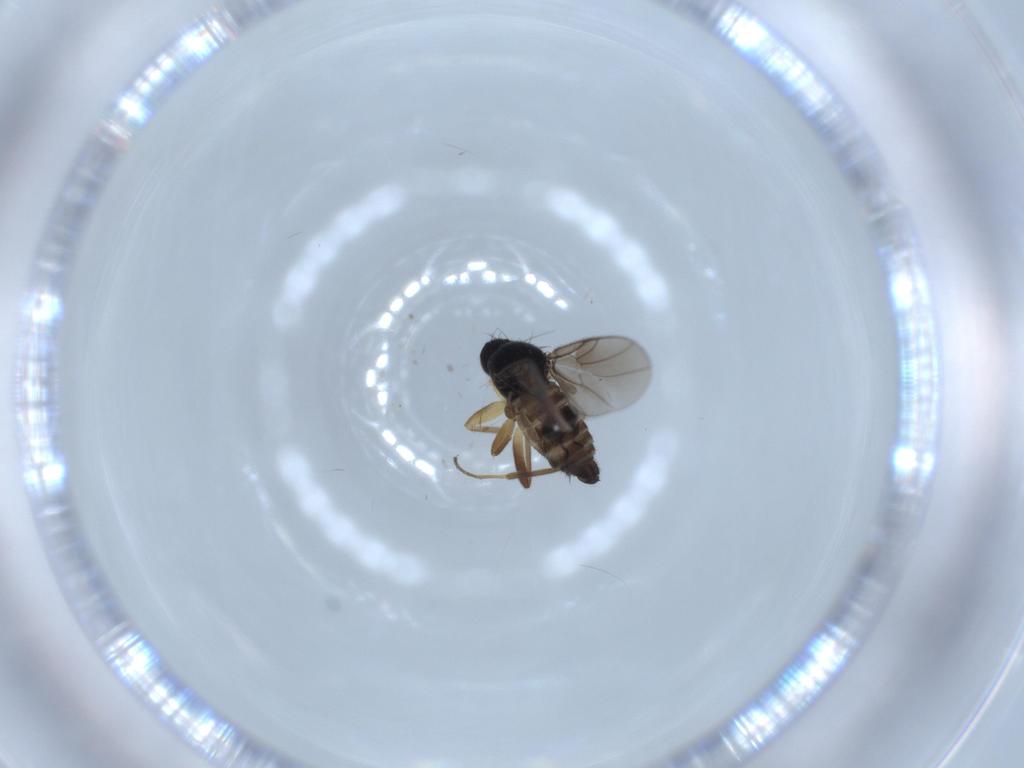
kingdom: Animalia
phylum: Arthropoda
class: Insecta
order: Diptera
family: Hybotidae
